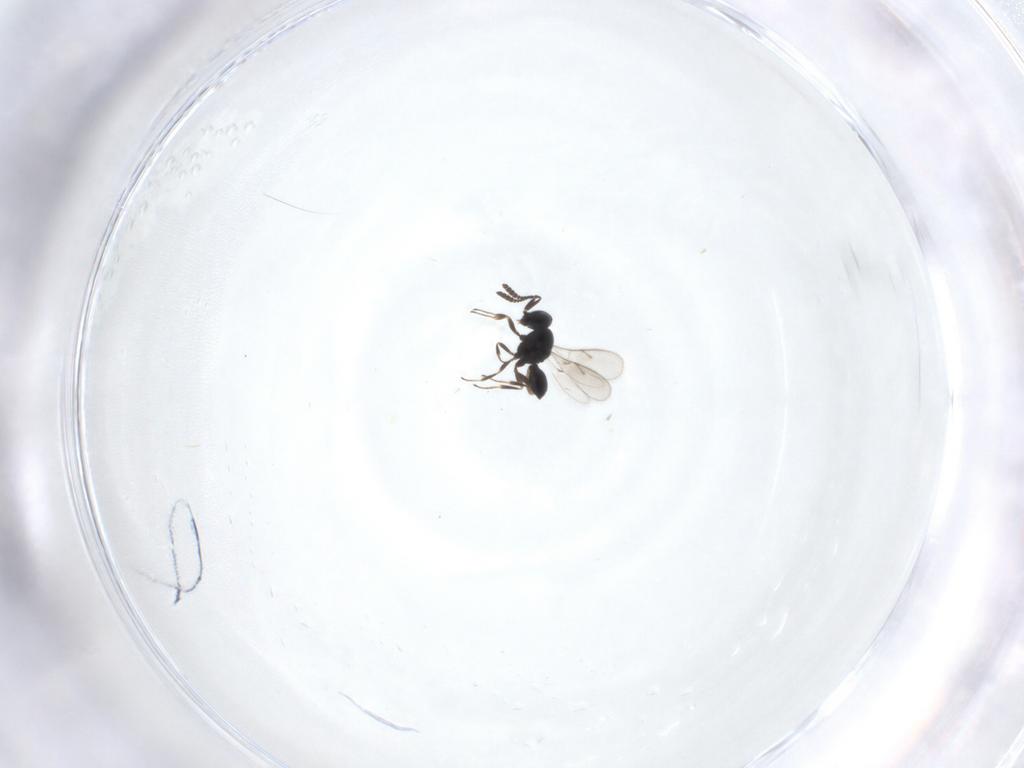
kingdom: Animalia
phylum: Arthropoda
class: Insecta
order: Hymenoptera
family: Scelionidae
